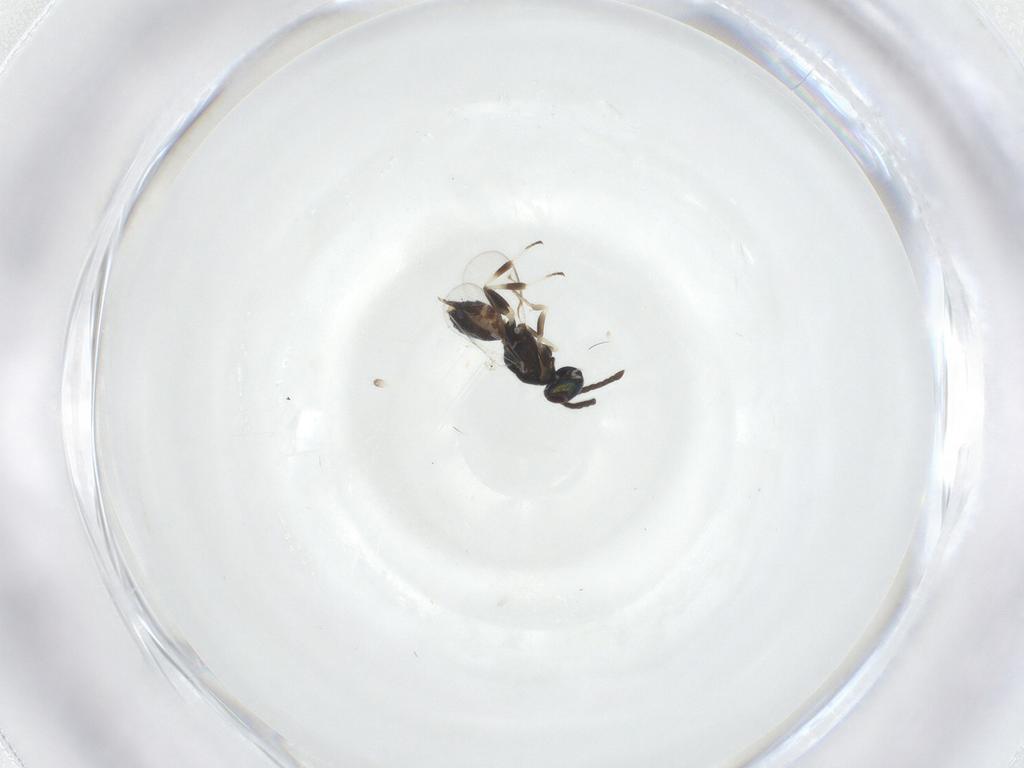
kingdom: Animalia
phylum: Arthropoda
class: Insecta
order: Hymenoptera
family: Eupelmidae
